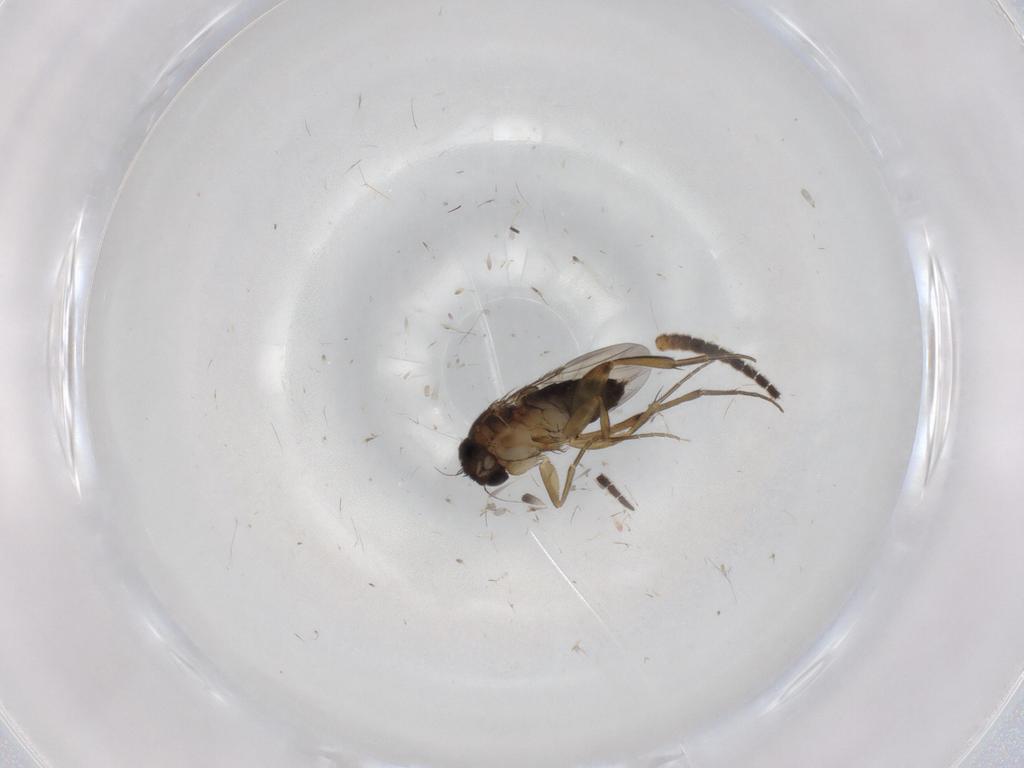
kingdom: Animalia
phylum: Arthropoda
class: Insecta
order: Diptera
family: Phoridae
